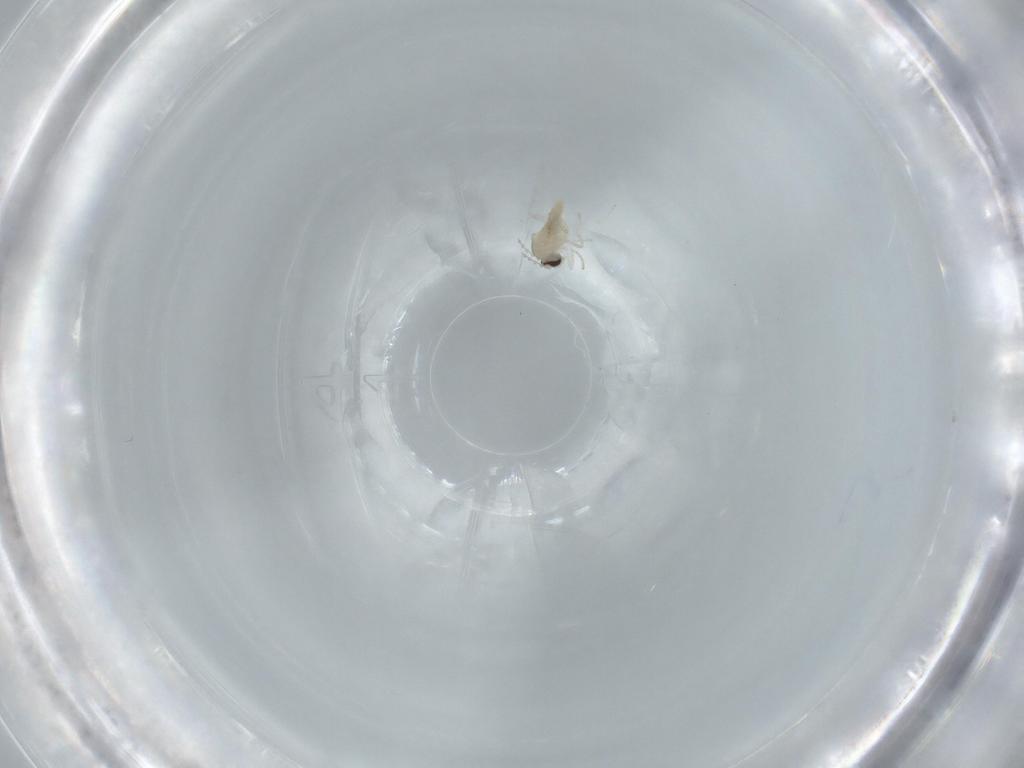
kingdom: Animalia
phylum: Arthropoda
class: Insecta
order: Diptera
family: Cecidomyiidae
